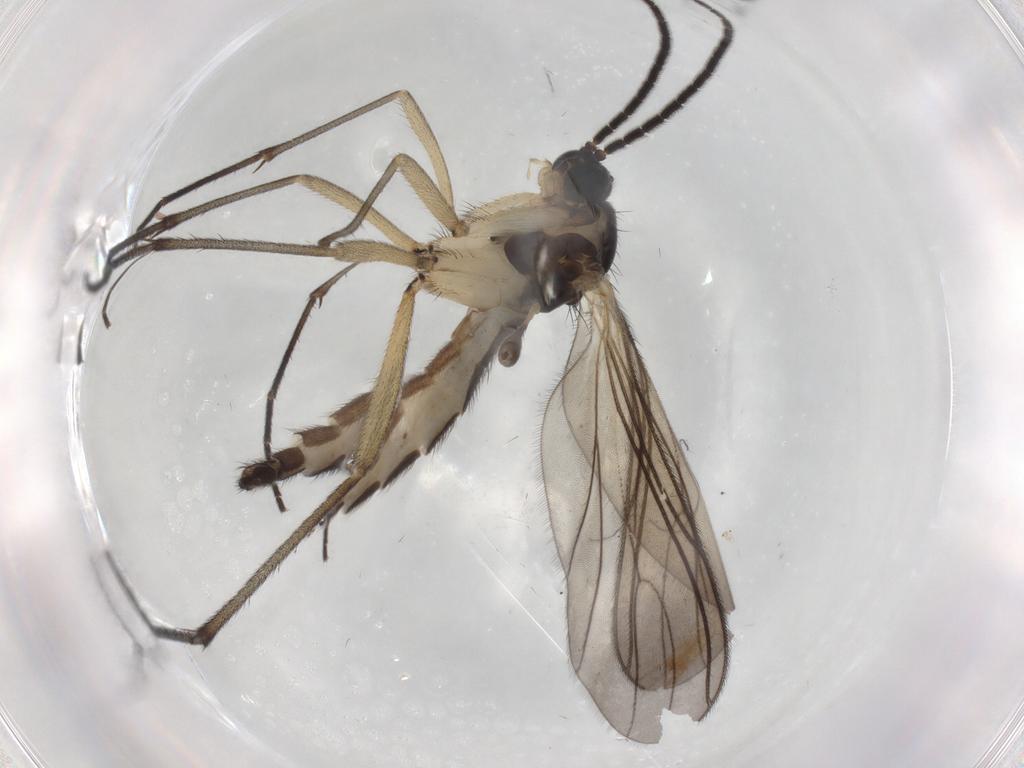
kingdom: Animalia
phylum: Arthropoda
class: Insecta
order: Diptera
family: Sciaridae
